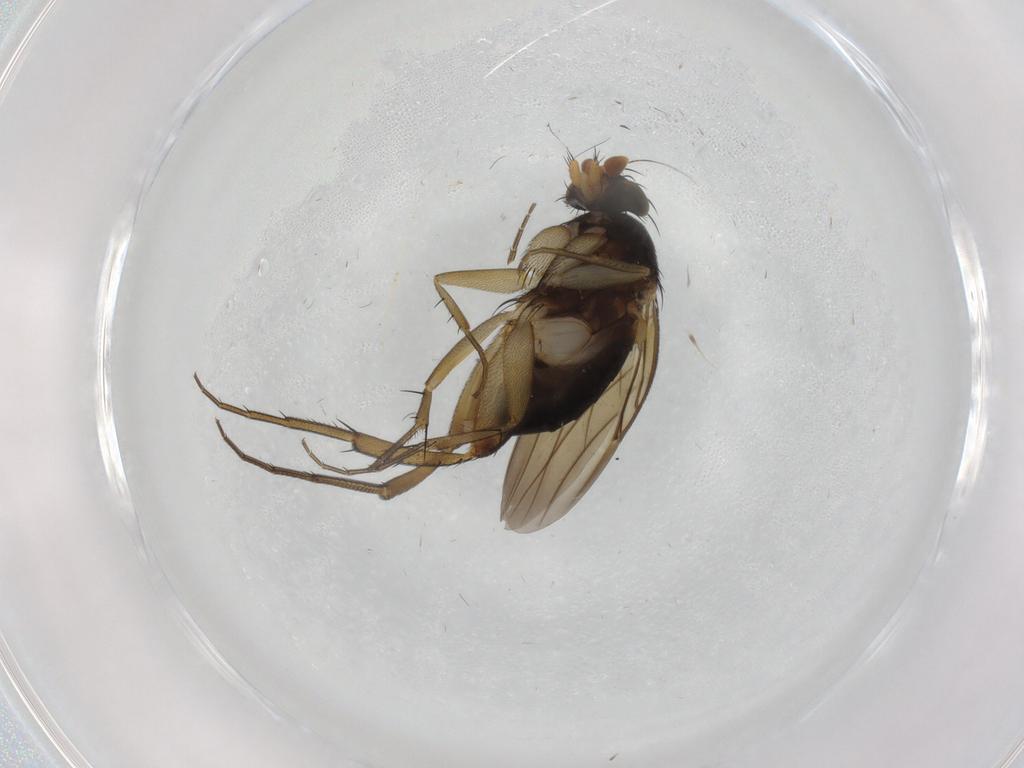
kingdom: Animalia
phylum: Arthropoda
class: Insecta
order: Diptera
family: Phoridae
